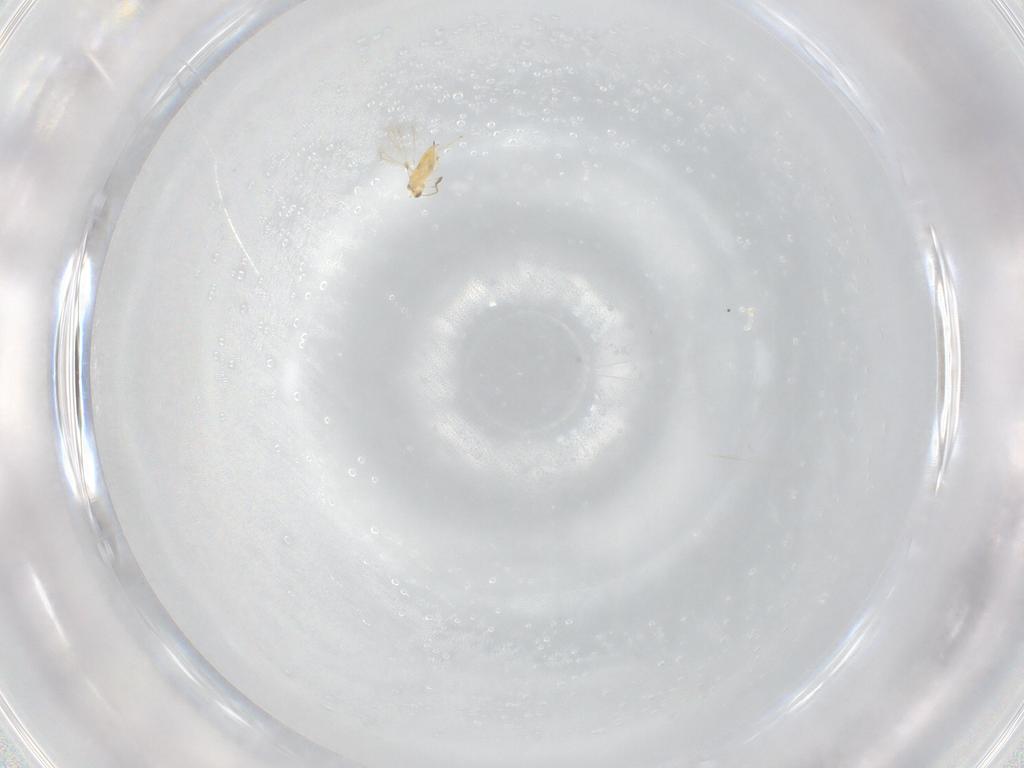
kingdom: Animalia
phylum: Arthropoda
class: Insecta
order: Hymenoptera
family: Mymaridae
